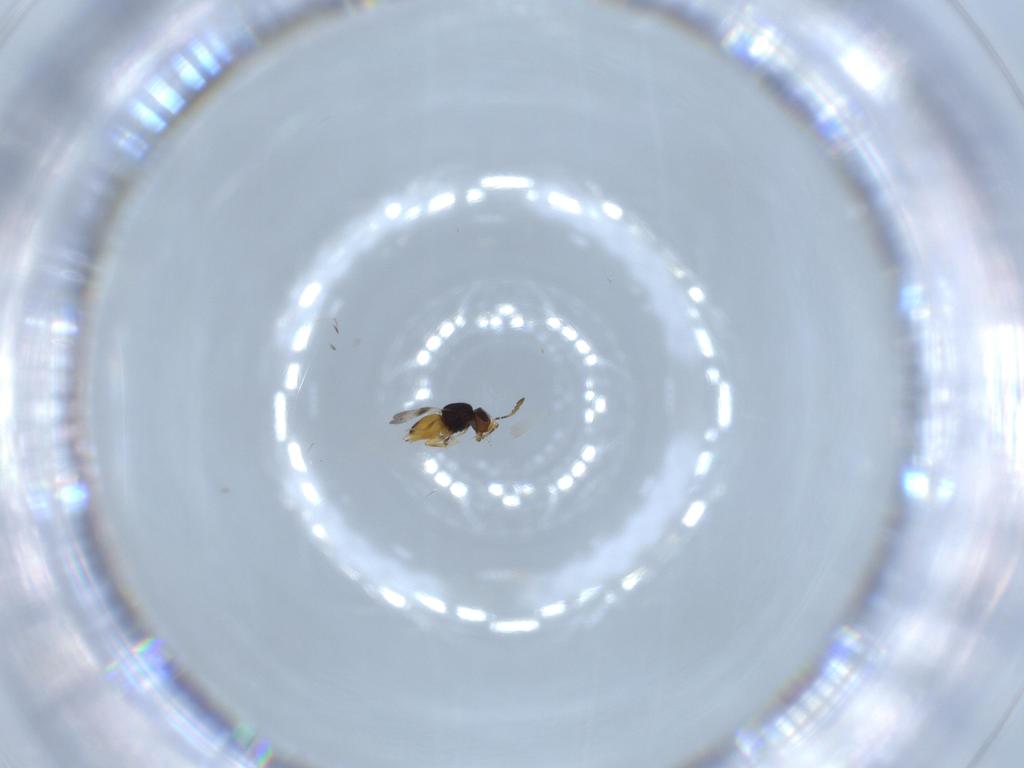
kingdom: Animalia
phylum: Arthropoda
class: Insecta
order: Hymenoptera
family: Ceraphronidae
